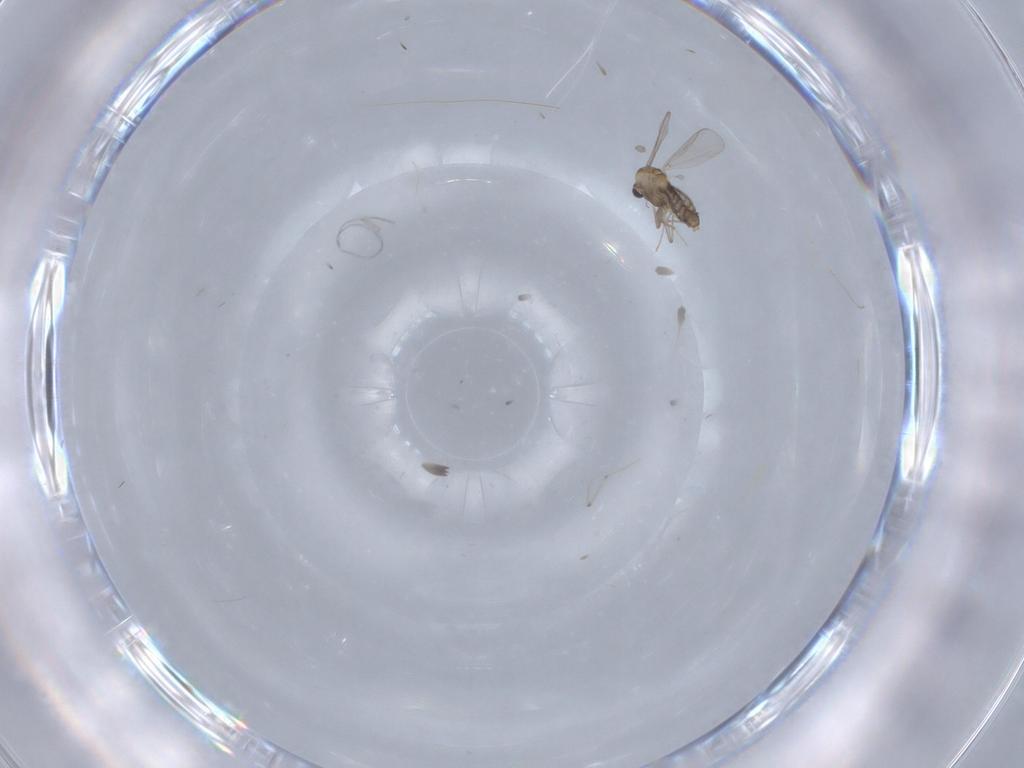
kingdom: Animalia
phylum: Arthropoda
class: Insecta
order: Diptera
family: Chironomidae
